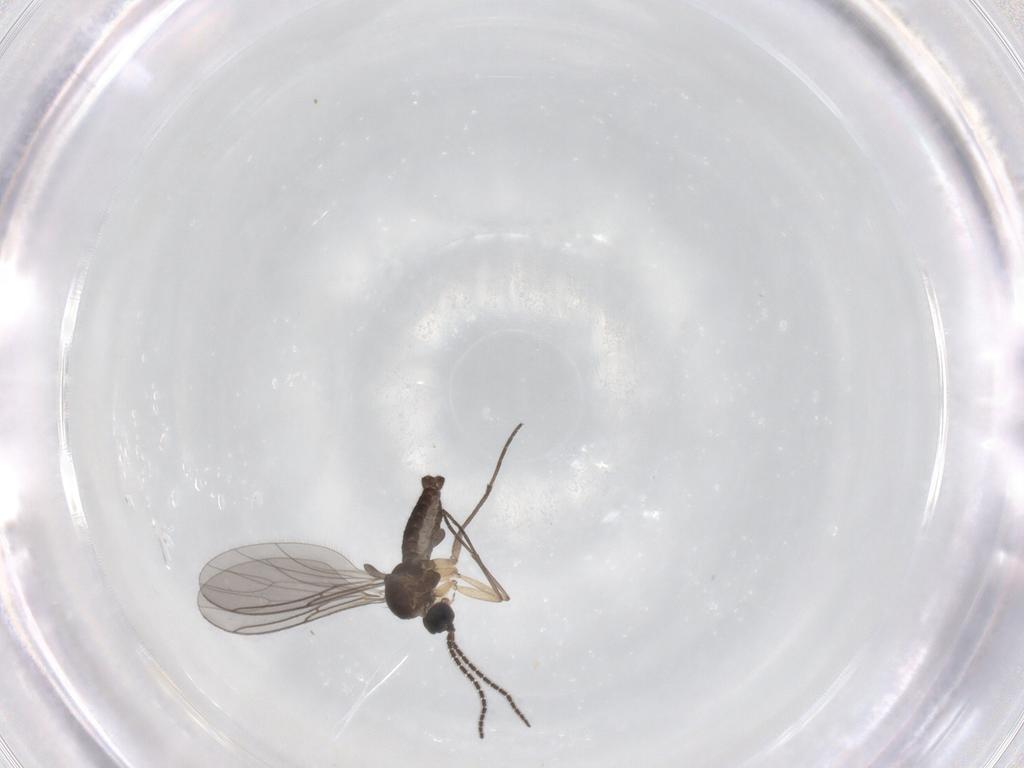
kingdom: Animalia
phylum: Arthropoda
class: Insecta
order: Diptera
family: Sciaridae
